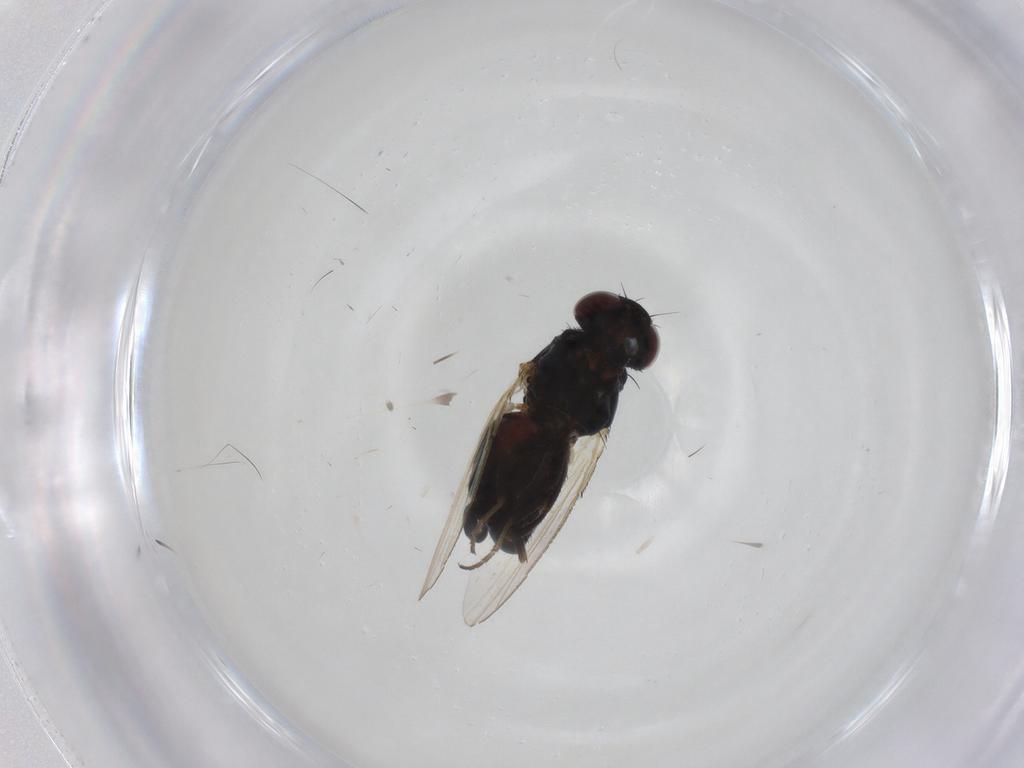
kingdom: Animalia
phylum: Arthropoda
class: Insecta
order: Diptera
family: Carnidae
